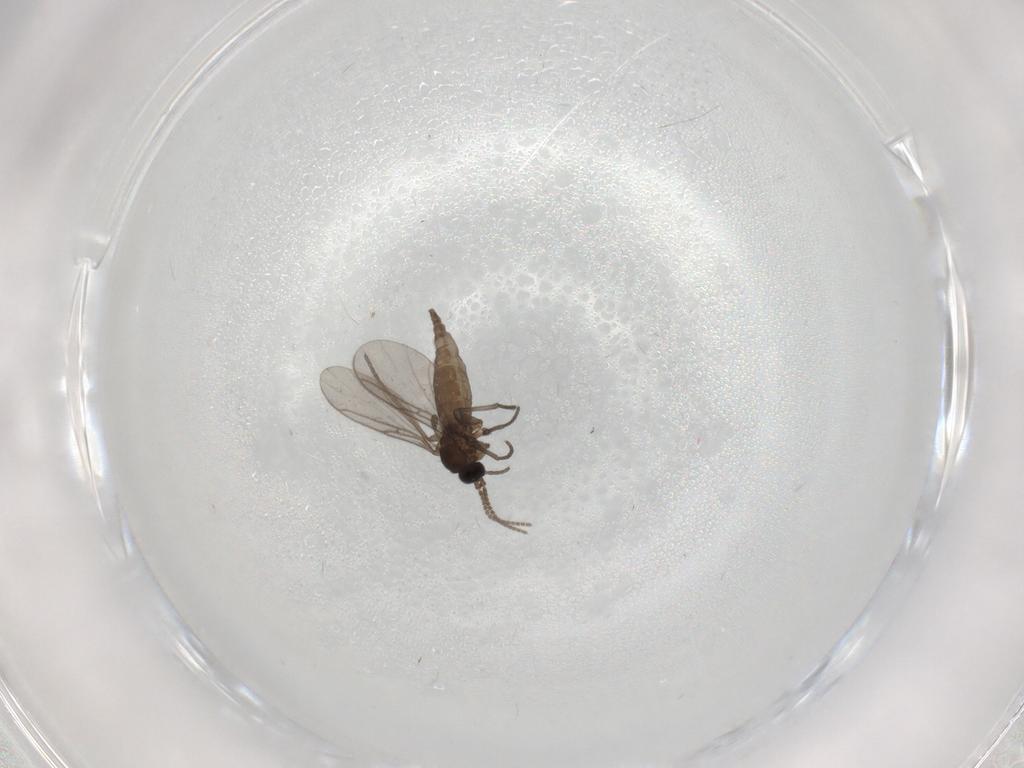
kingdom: Animalia
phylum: Arthropoda
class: Insecta
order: Diptera
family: Sciaridae
